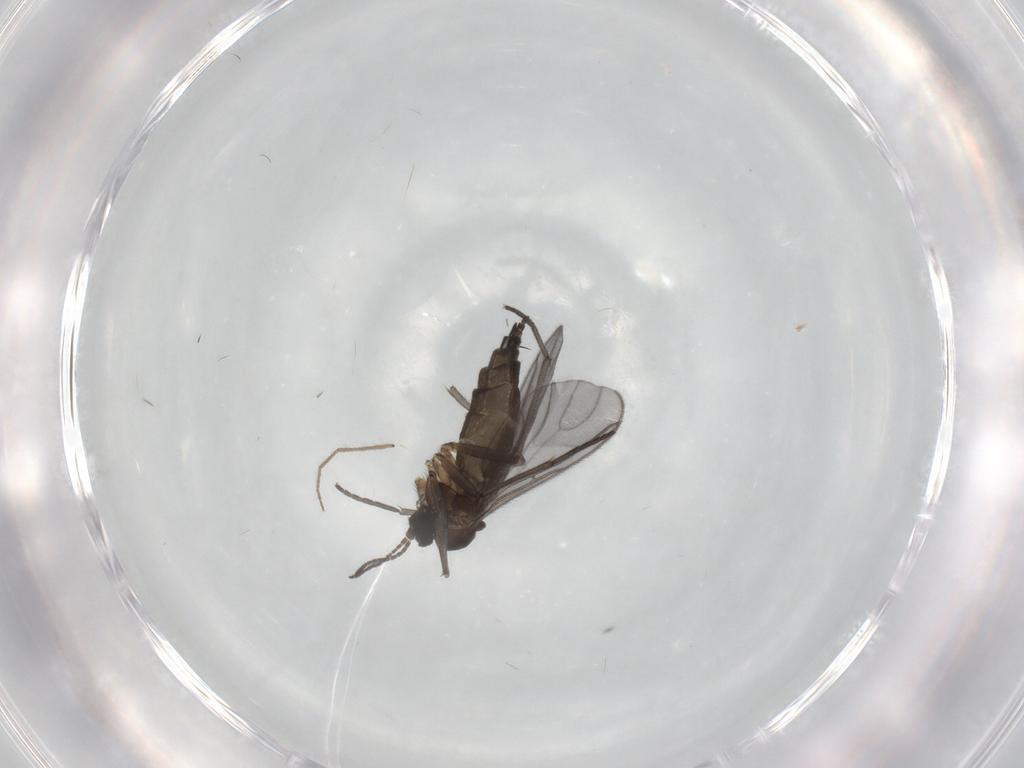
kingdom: Animalia
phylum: Arthropoda
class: Insecta
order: Diptera
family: Sciaridae
